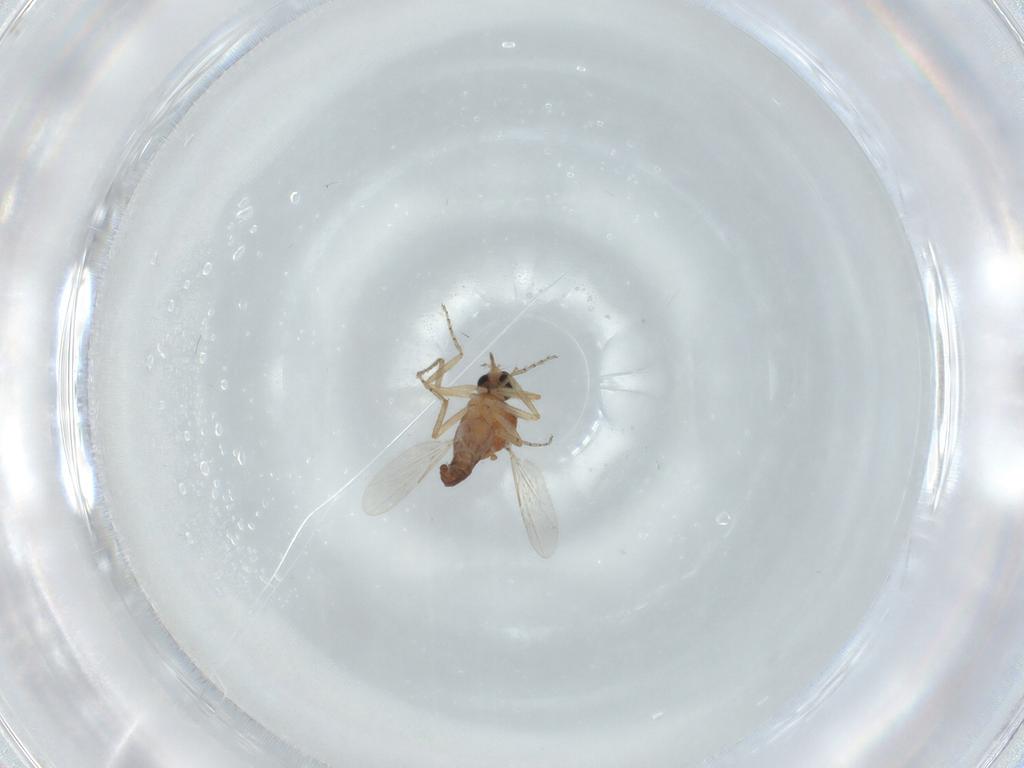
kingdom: Animalia
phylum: Arthropoda
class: Insecta
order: Diptera
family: Ceratopogonidae
